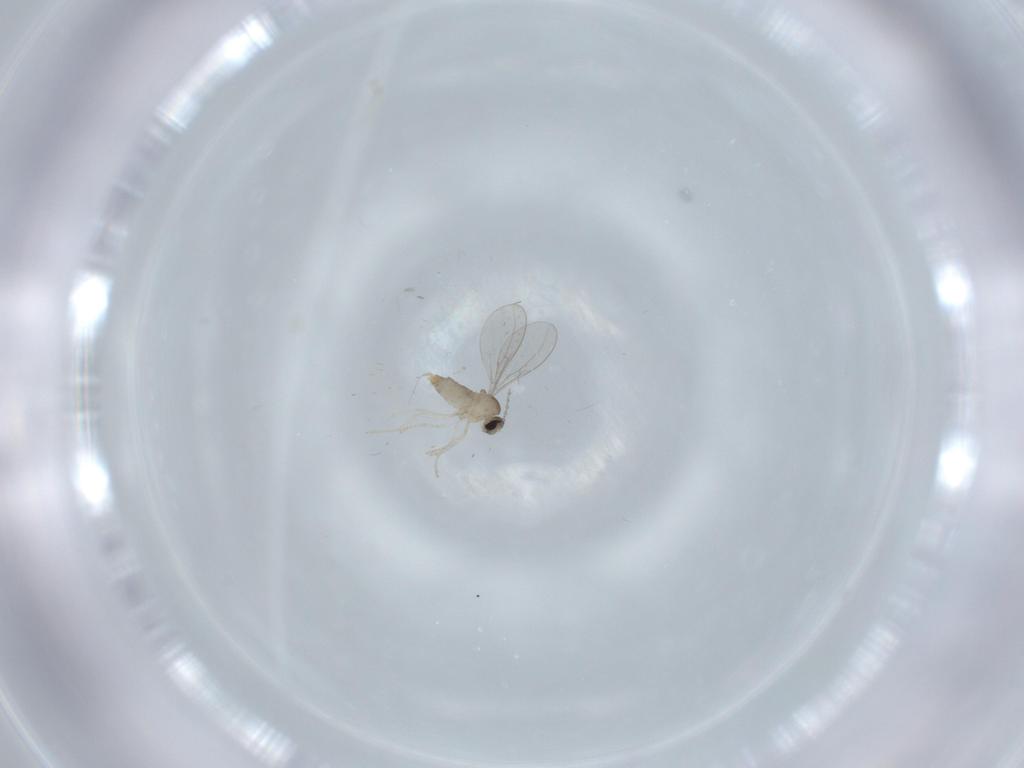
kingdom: Animalia
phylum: Arthropoda
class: Insecta
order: Diptera
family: Cecidomyiidae
